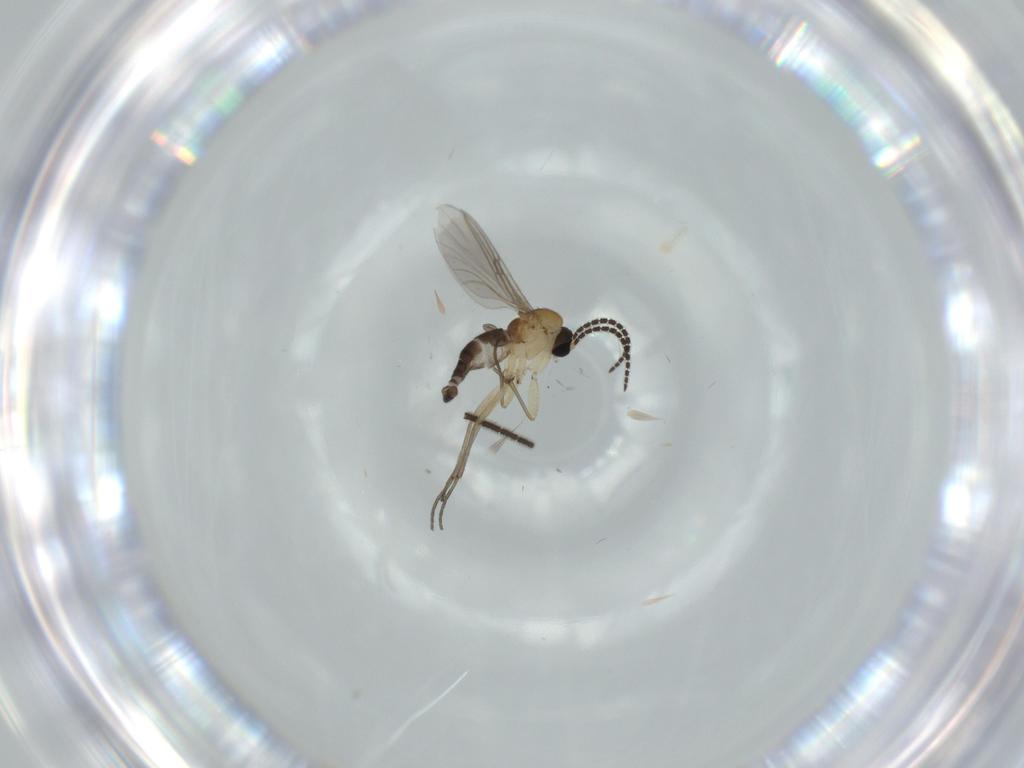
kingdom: Animalia
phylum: Arthropoda
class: Insecta
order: Diptera
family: Sciaridae
